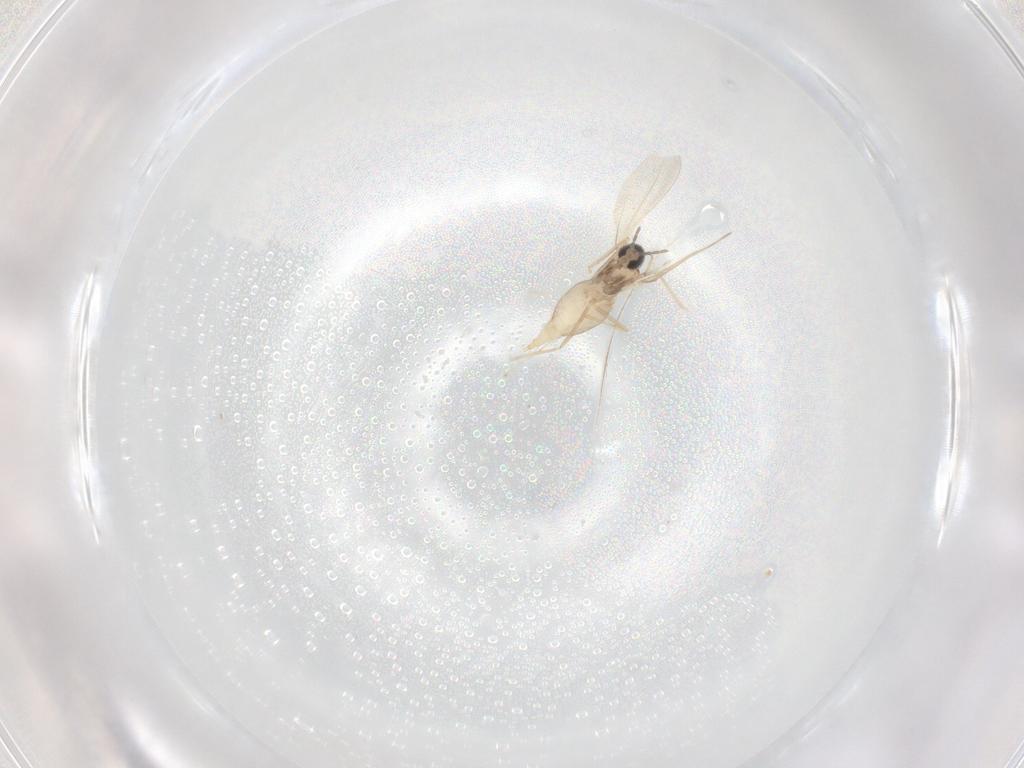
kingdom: Animalia
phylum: Arthropoda
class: Insecta
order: Diptera
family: Cecidomyiidae
